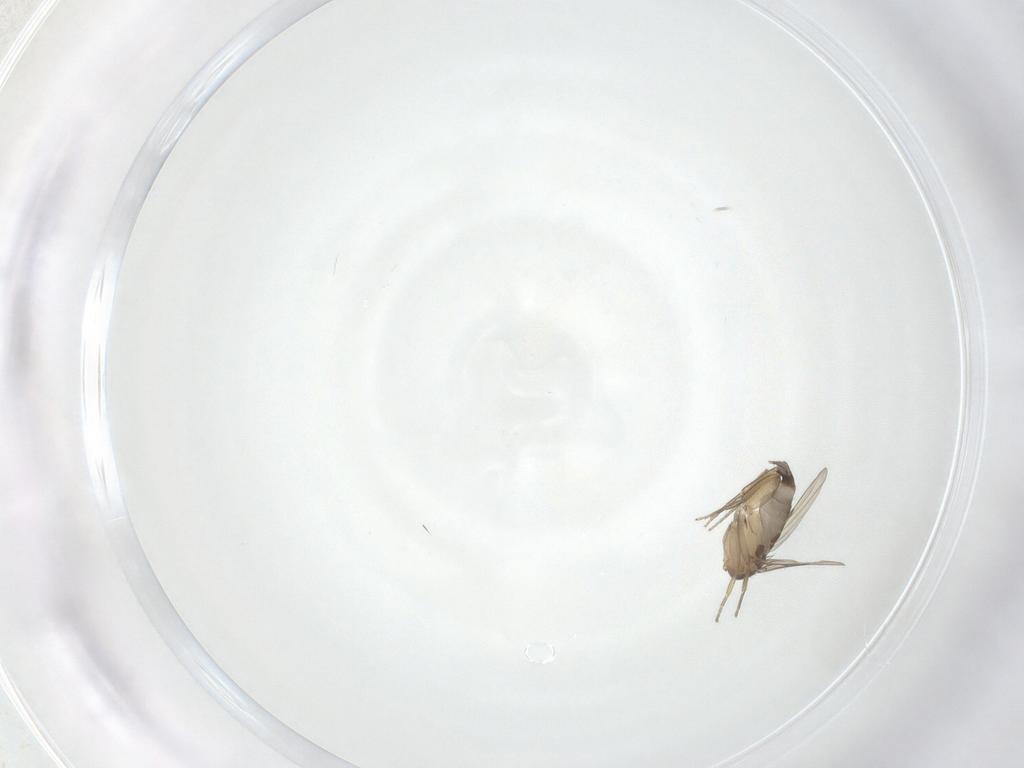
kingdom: Animalia
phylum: Arthropoda
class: Insecta
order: Diptera
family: Phoridae
